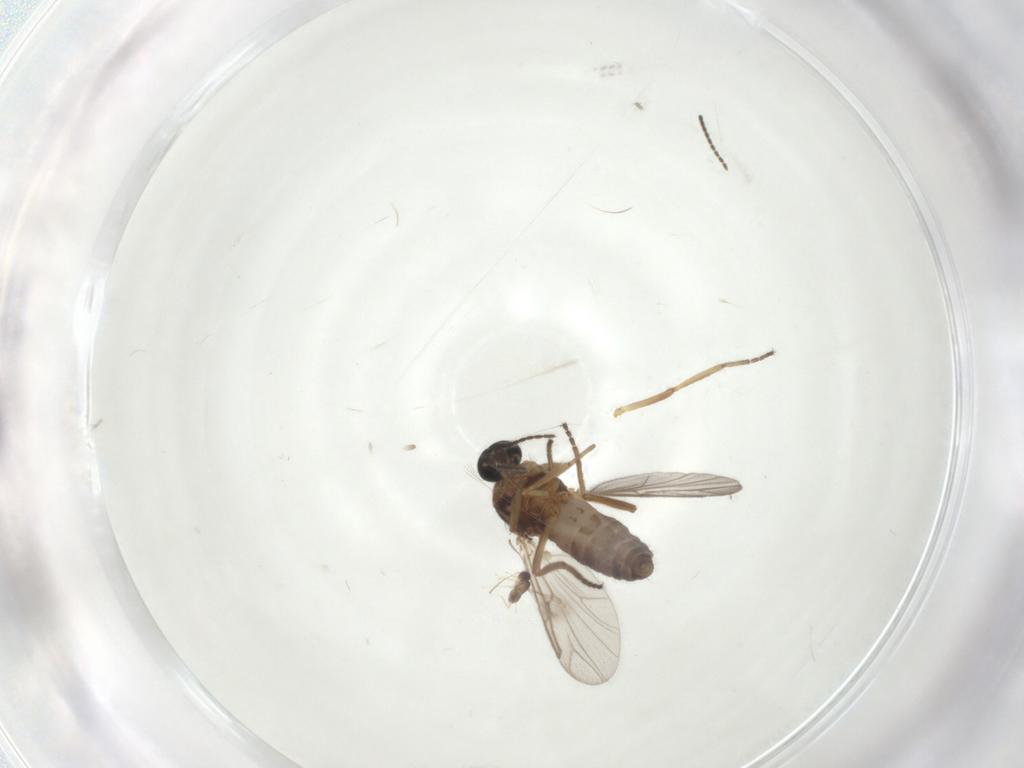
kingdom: Animalia
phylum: Arthropoda
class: Insecta
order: Diptera
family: Ceratopogonidae
